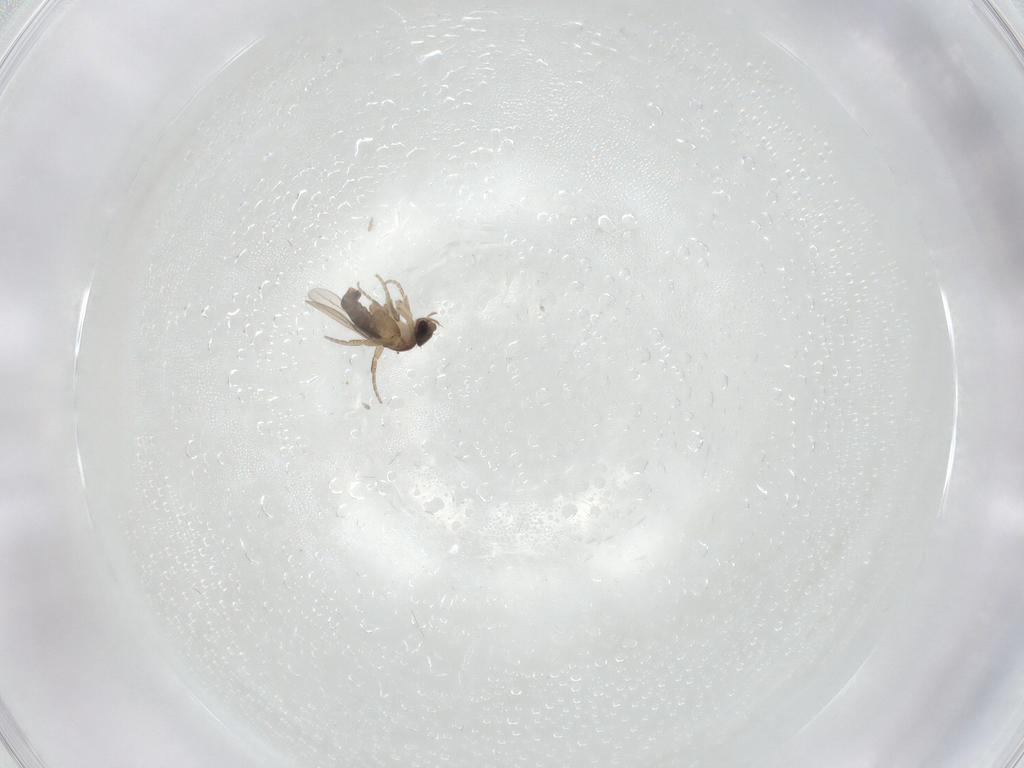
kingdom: Animalia
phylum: Arthropoda
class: Insecta
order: Diptera
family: Phoridae
